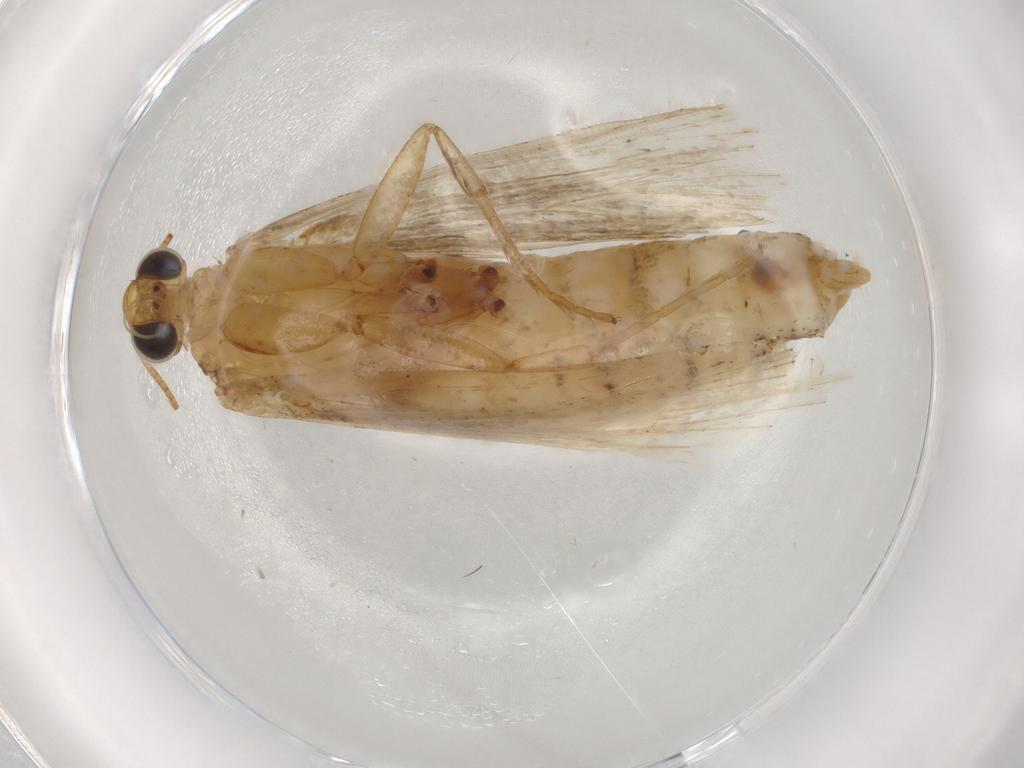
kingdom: Animalia
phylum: Arthropoda
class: Insecta
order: Lepidoptera
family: Crambidae
